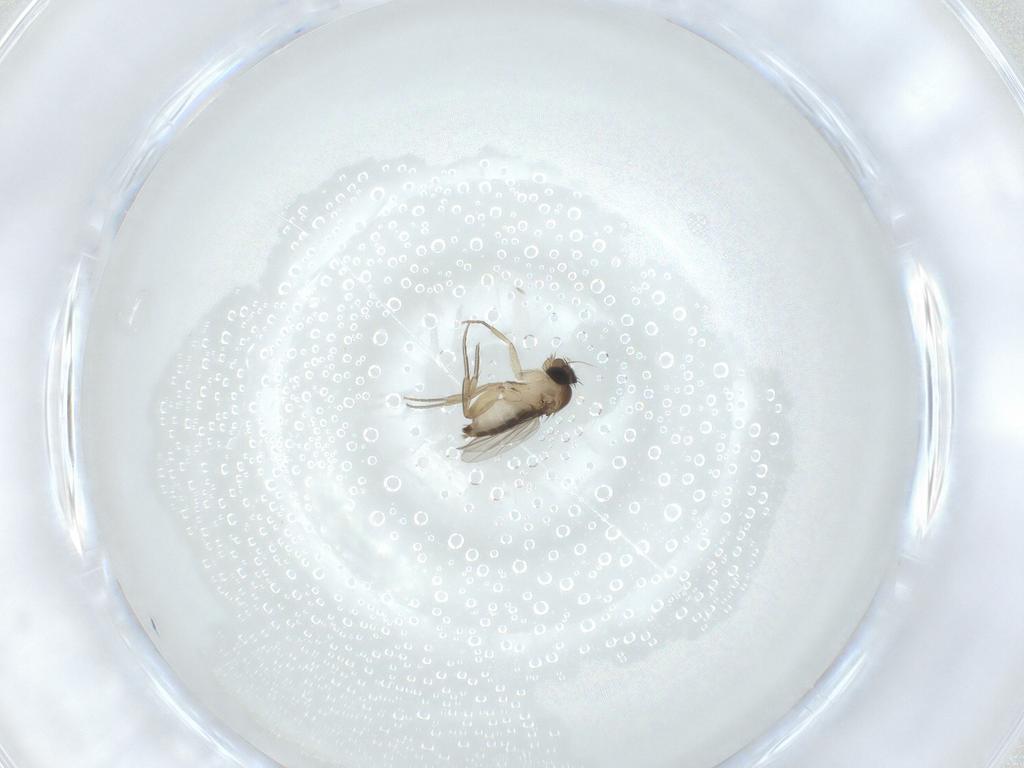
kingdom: Animalia
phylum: Arthropoda
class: Insecta
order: Diptera
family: Phoridae
